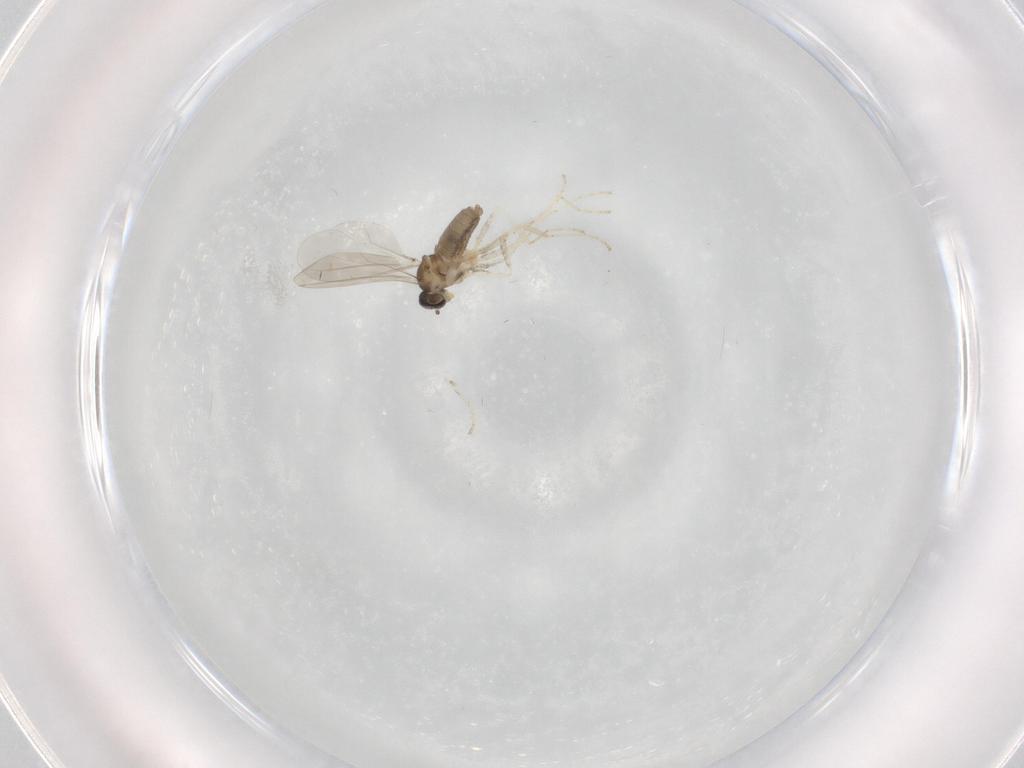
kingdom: Animalia
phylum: Arthropoda
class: Insecta
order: Diptera
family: Cecidomyiidae
